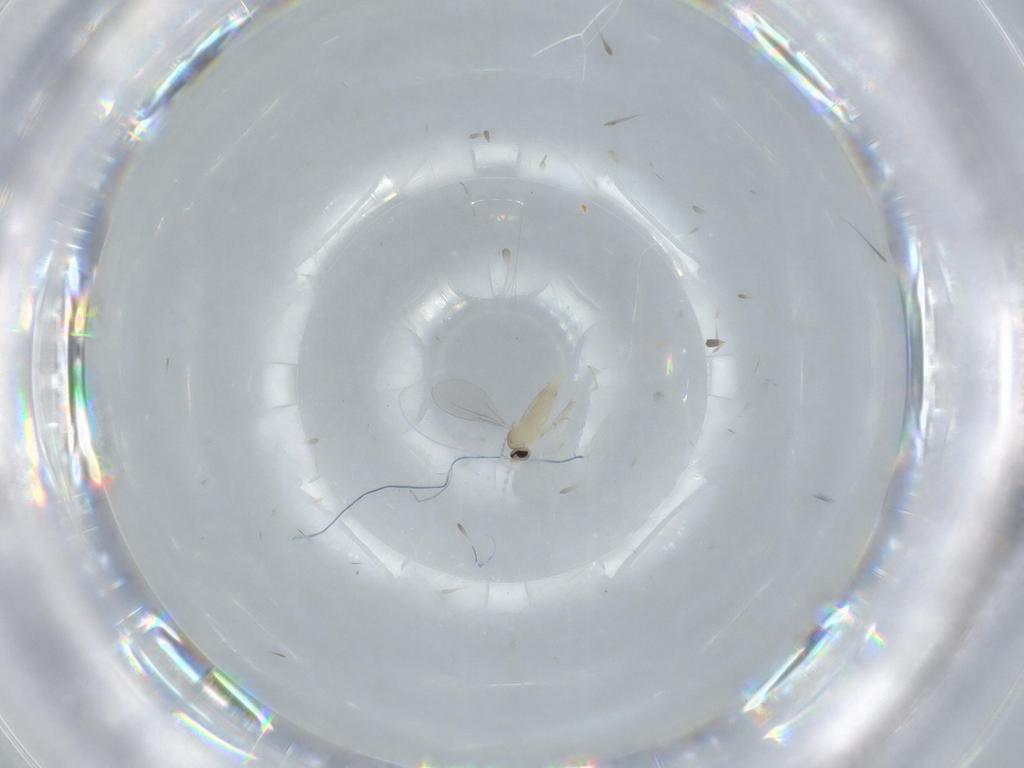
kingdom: Animalia
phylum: Arthropoda
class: Insecta
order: Diptera
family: Cecidomyiidae
